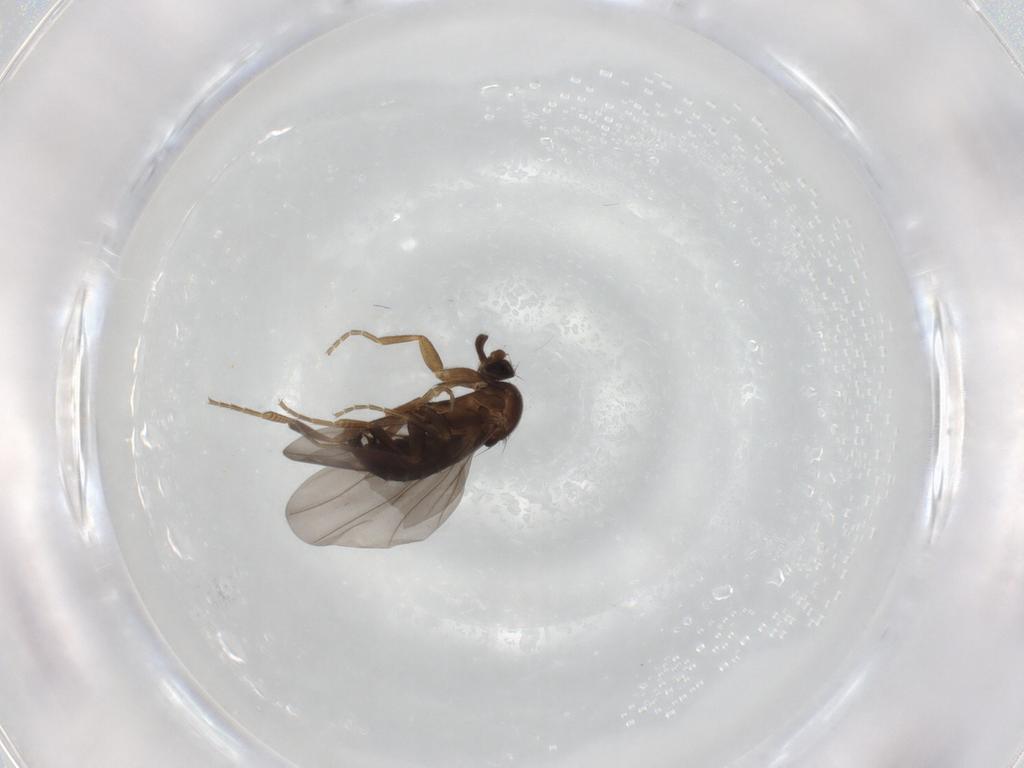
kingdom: Animalia
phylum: Arthropoda
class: Insecta
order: Diptera
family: Phoridae
